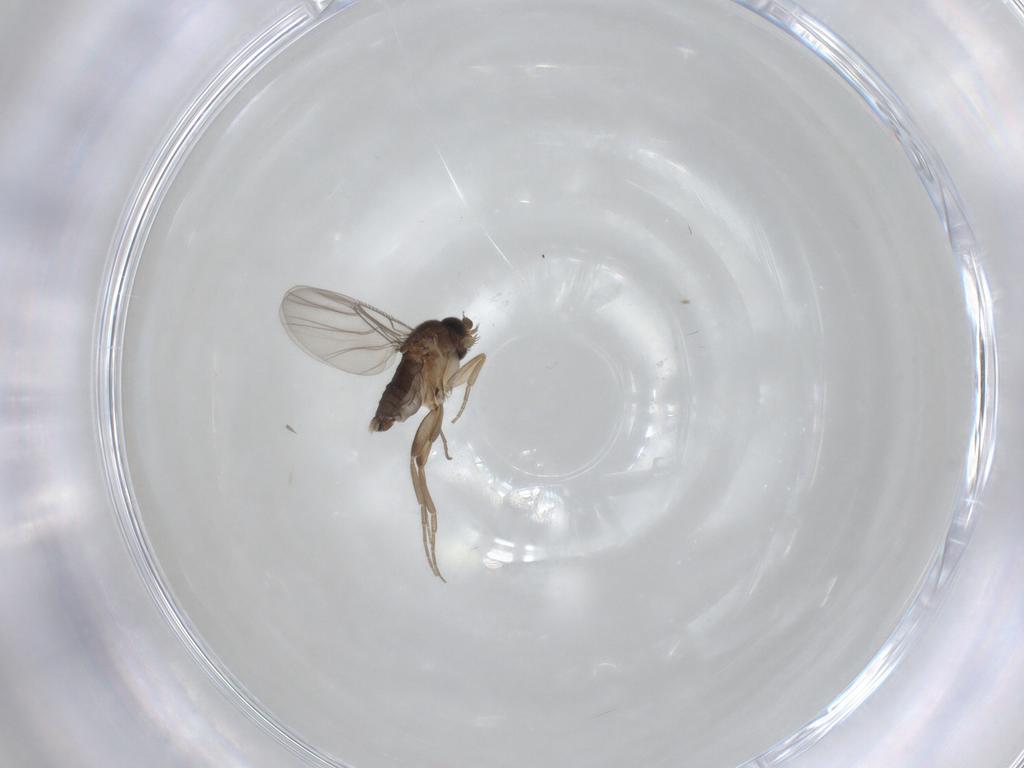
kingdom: Animalia
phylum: Arthropoda
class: Insecta
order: Diptera
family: Phoridae
